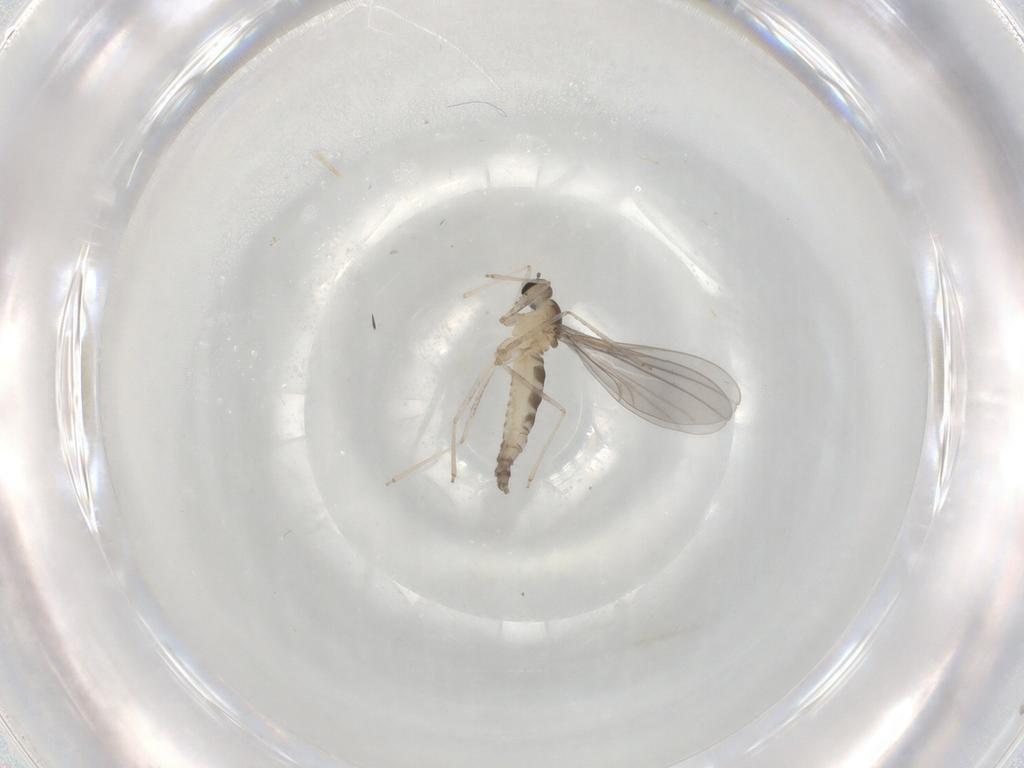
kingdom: Animalia
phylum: Arthropoda
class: Insecta
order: Diptera
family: Cecidomyiidae
